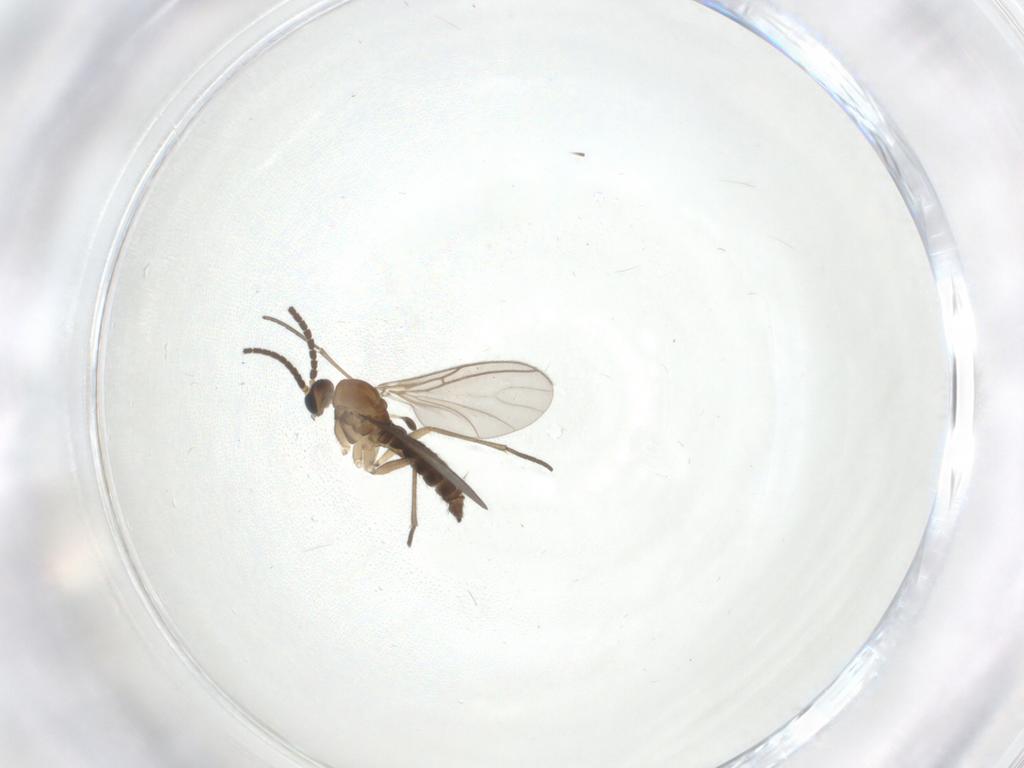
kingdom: Animalia
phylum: Arthropoda
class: Insecta
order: Diptera
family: Sciaridae
